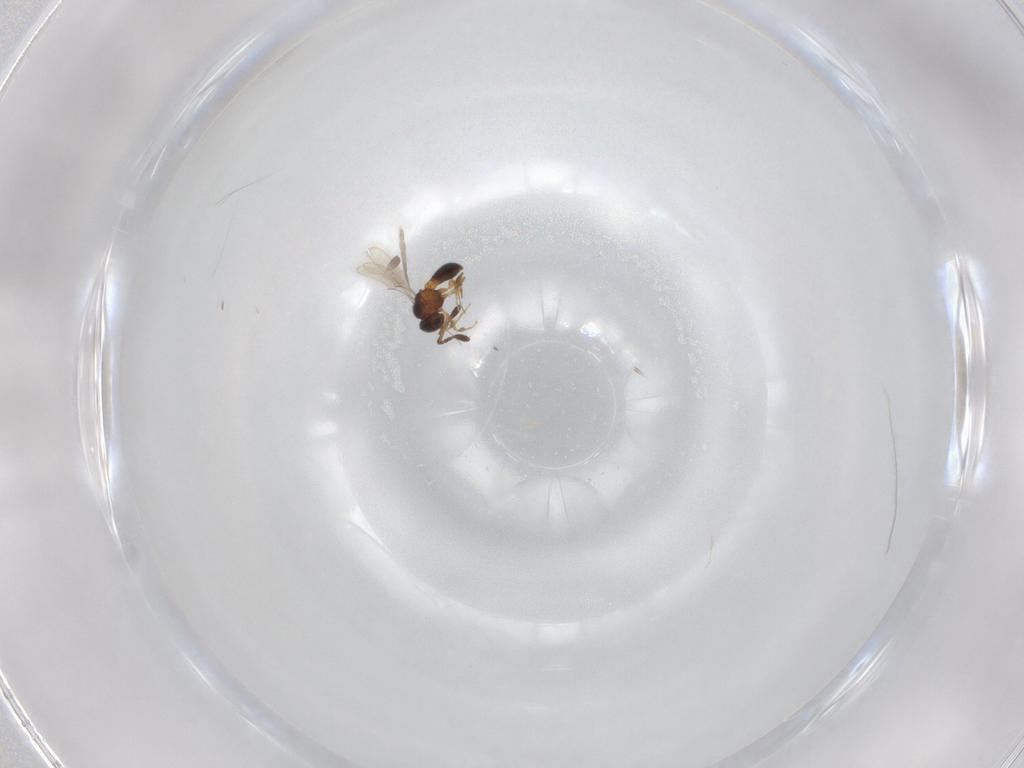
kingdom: Animalia
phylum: Arthropoda
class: Insecta
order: Hymenoptera
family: Scelionidae
